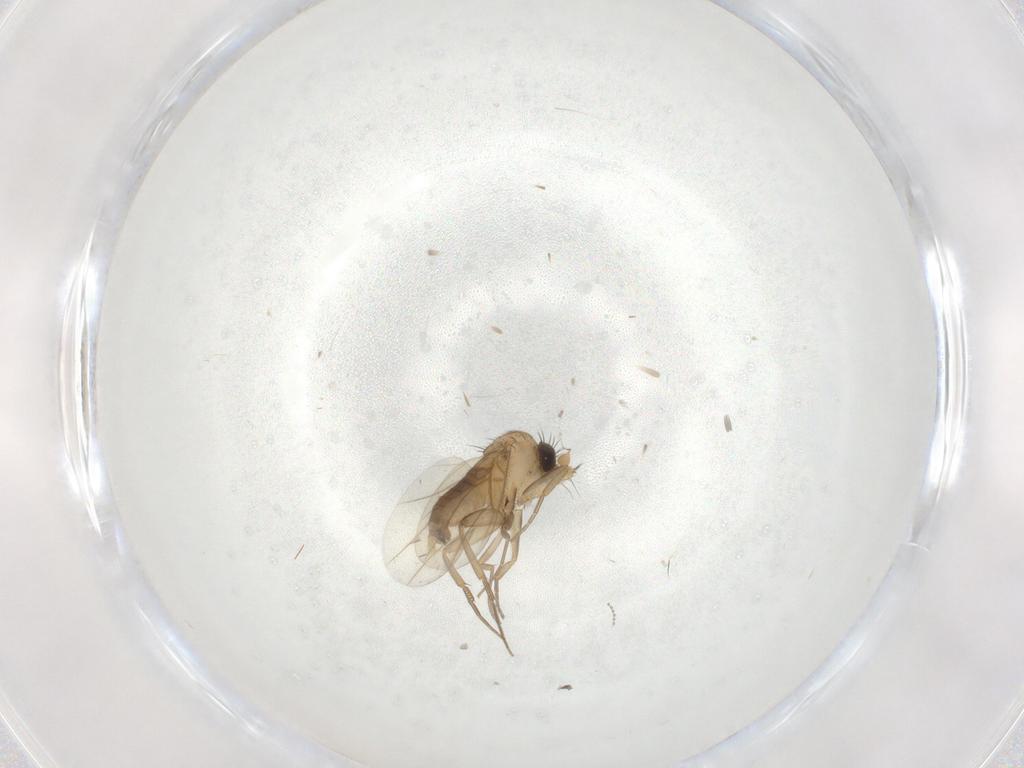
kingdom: Animalia
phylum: Arthropoda
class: Insecta
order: Diptera
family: Cecidomyiidae
